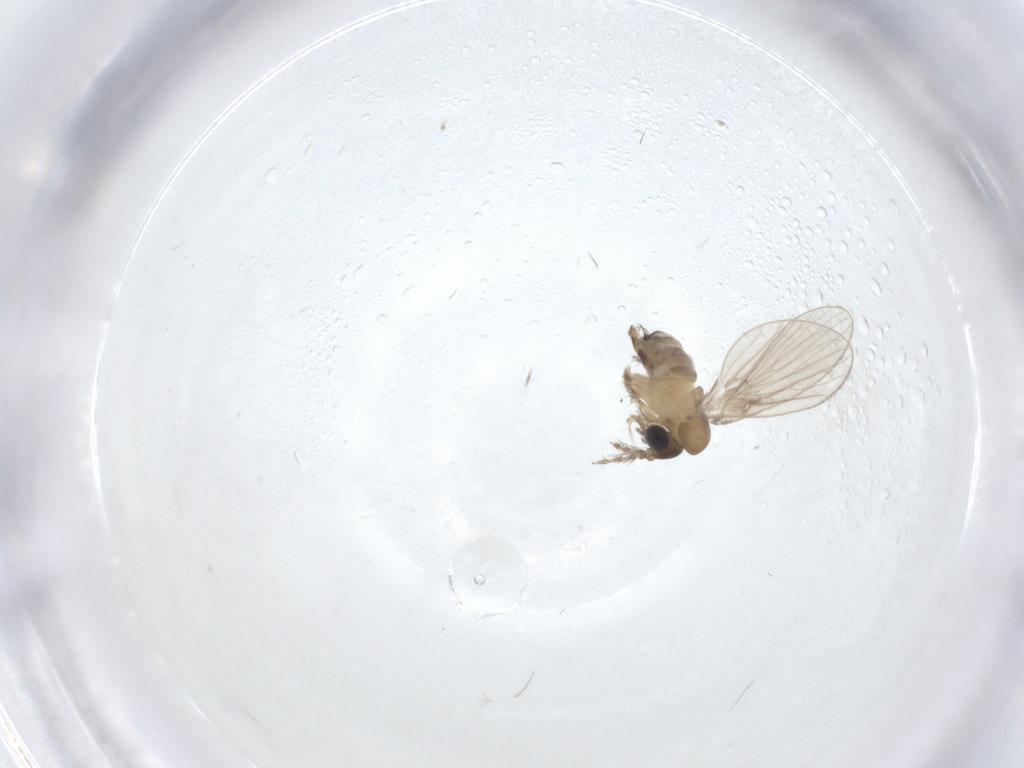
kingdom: Animalia
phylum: Arthropoda
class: Insecta
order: Diptera
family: Psychodidae
